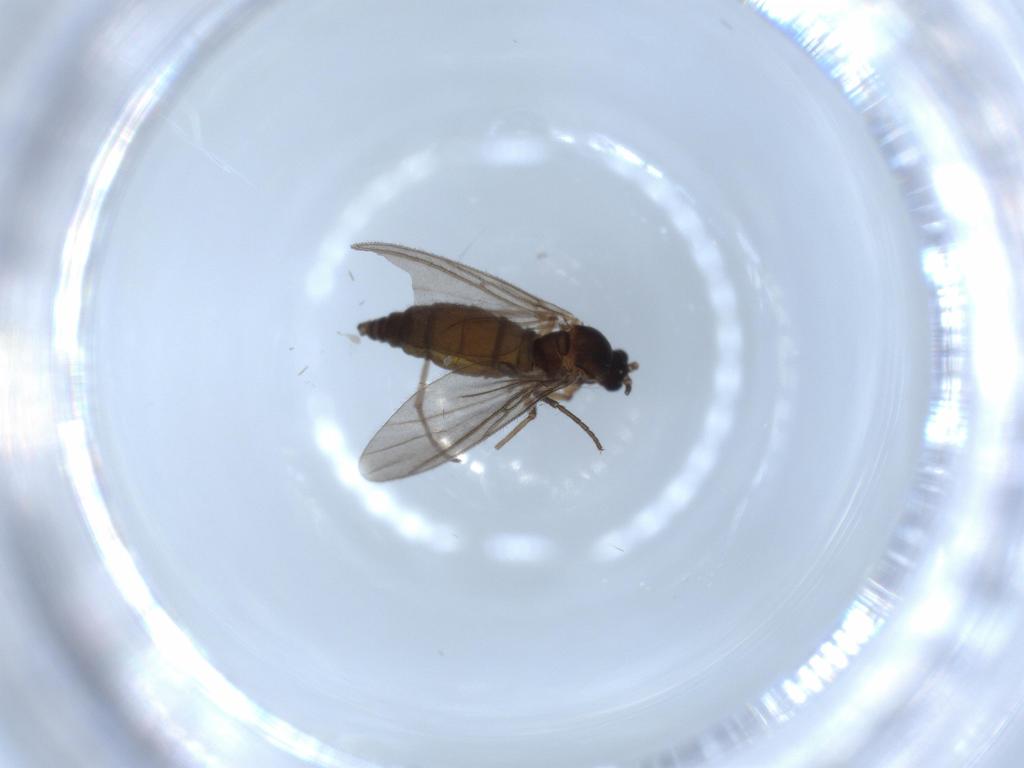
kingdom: Animalia
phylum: Arthropoda
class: Insecta
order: Diptera
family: Sciaridae
